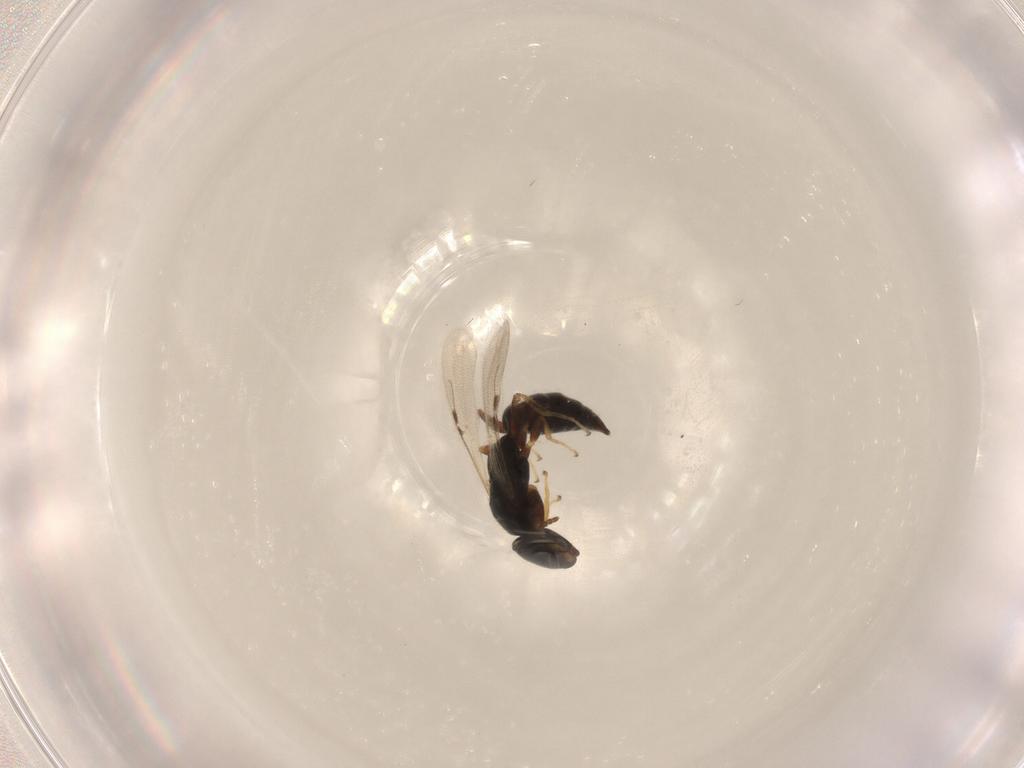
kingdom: Animalia
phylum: Arthropoda
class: Insecta
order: Hymenoptera
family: Bethylidae
